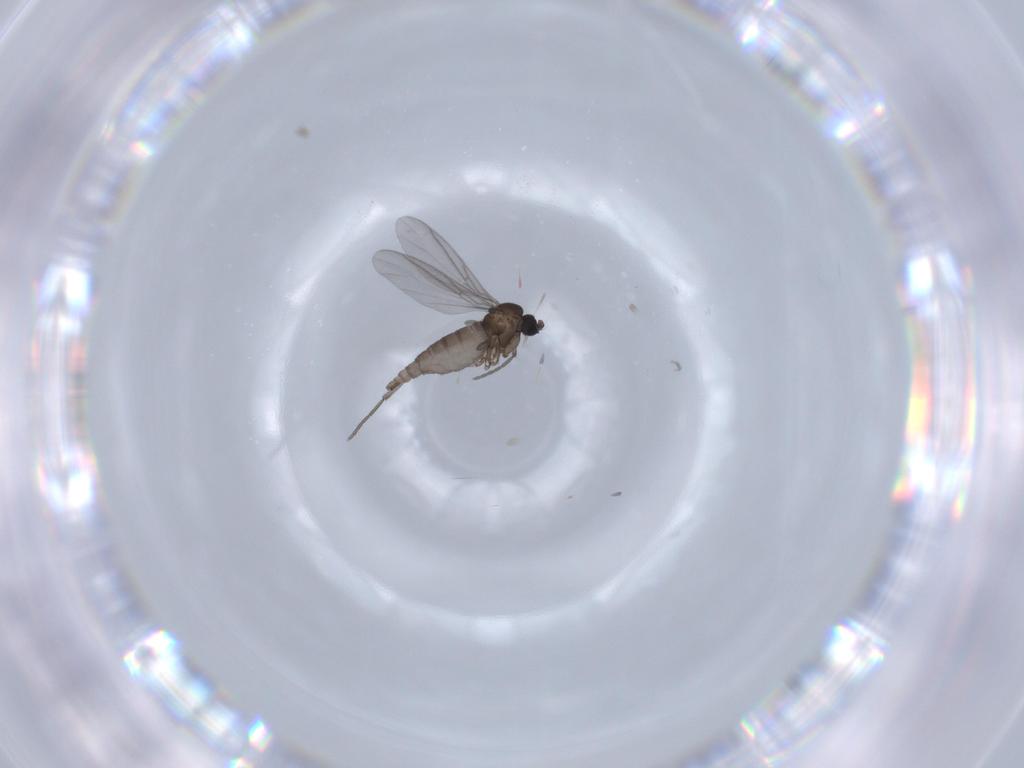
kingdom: Animalia
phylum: Arthropoda
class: Insecta
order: Diptera
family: Sciaridae
